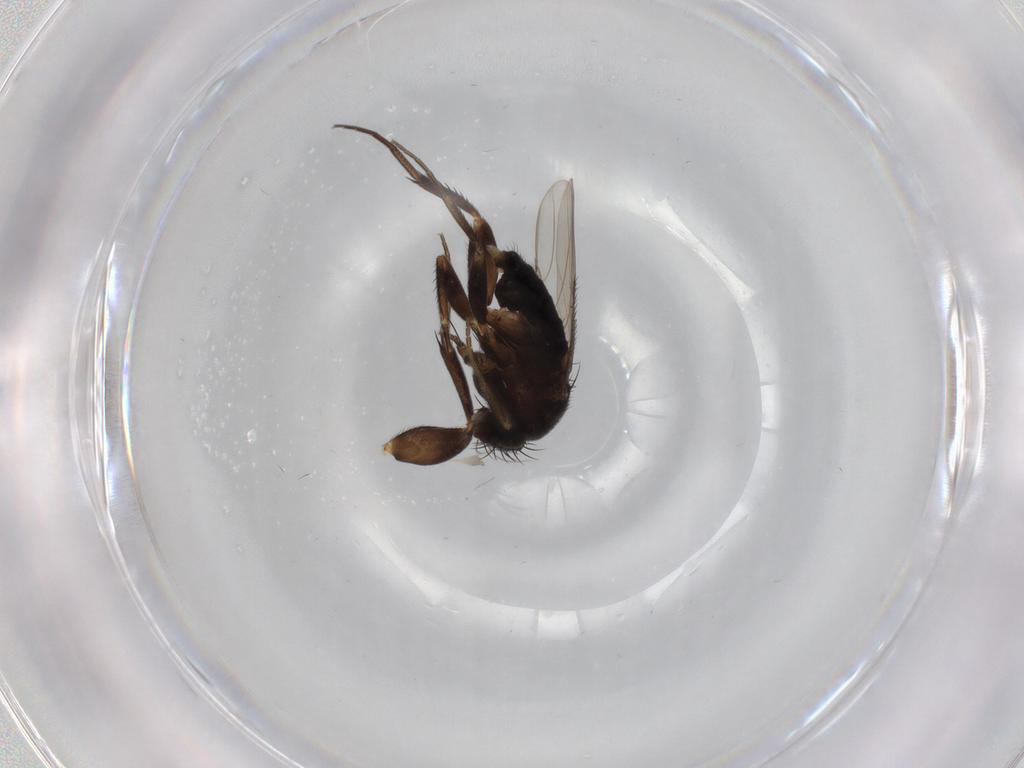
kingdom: Animalia
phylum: Arthropoda
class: Insecta
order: Diptera
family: Phoridae
